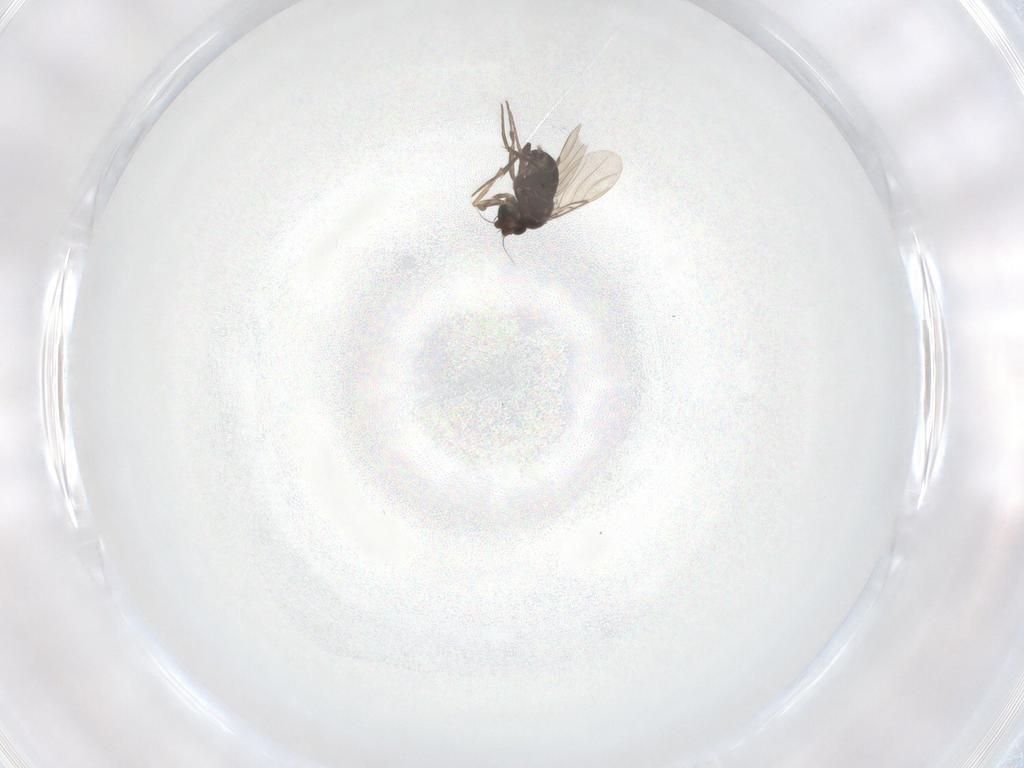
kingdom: Animalia
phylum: Arthropoda
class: Insecta
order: Diptera
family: Phoridae
